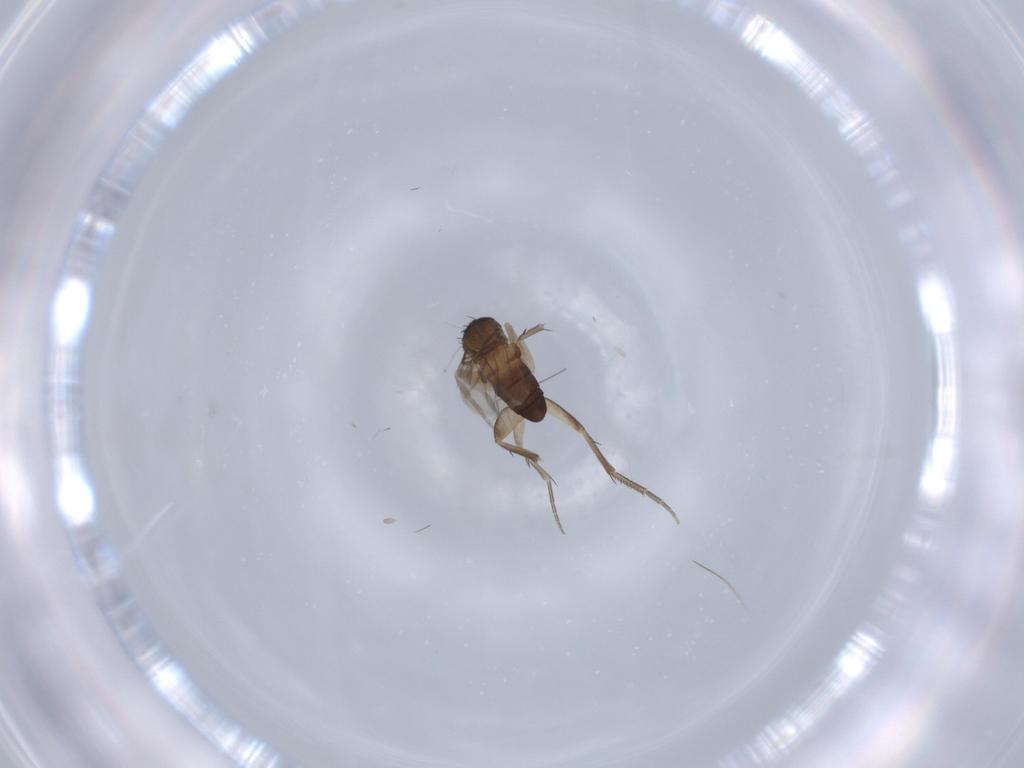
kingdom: Animalia
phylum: Arthropoda
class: Insecta
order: Diptera
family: Phoridae
